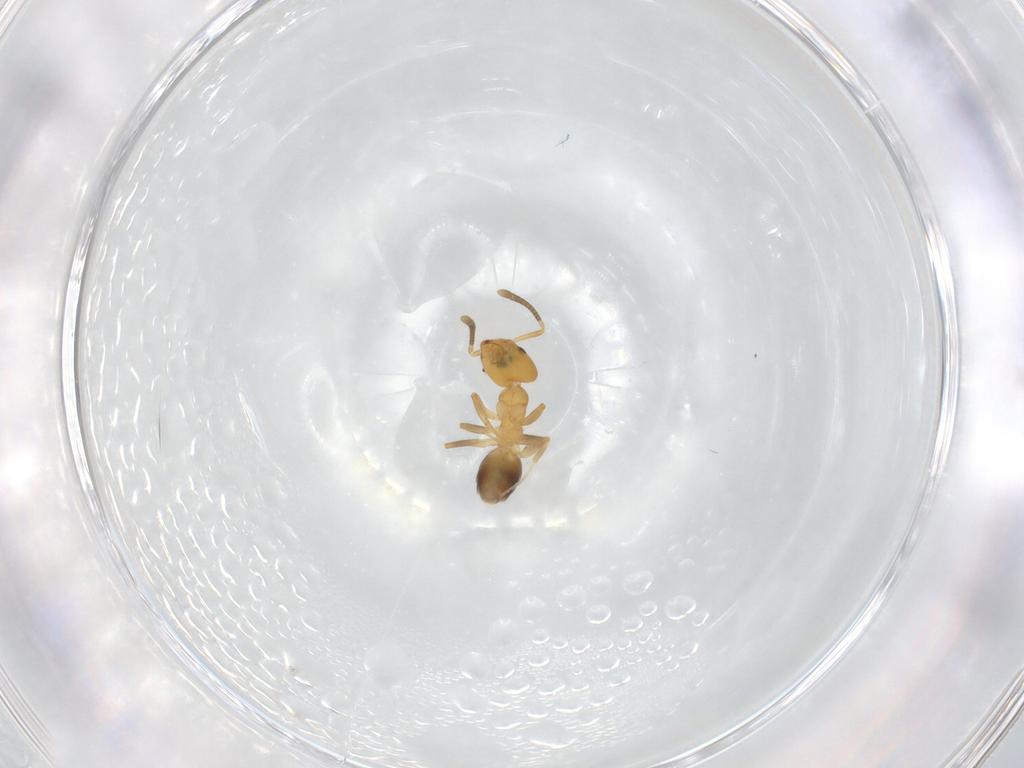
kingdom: Animalia
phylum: Arthropoda
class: Insecta
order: Hymenoptera
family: Formicidae
